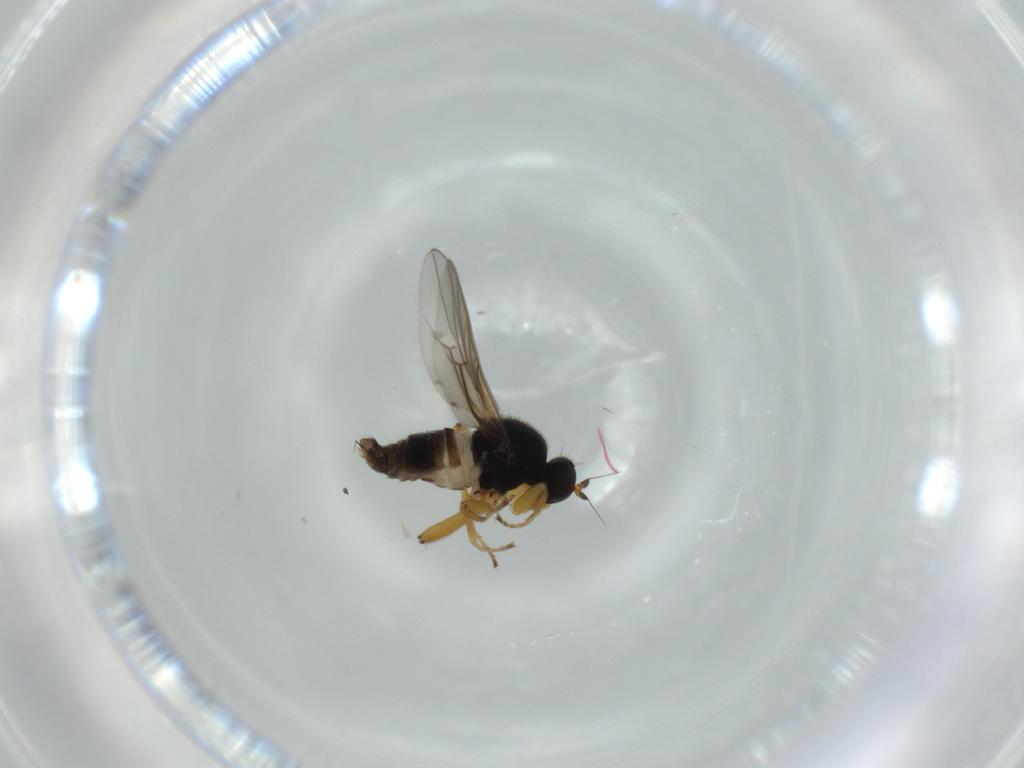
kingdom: Animalia
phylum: Arthropoda
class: Insecta
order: Diptera
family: Hybotidae
